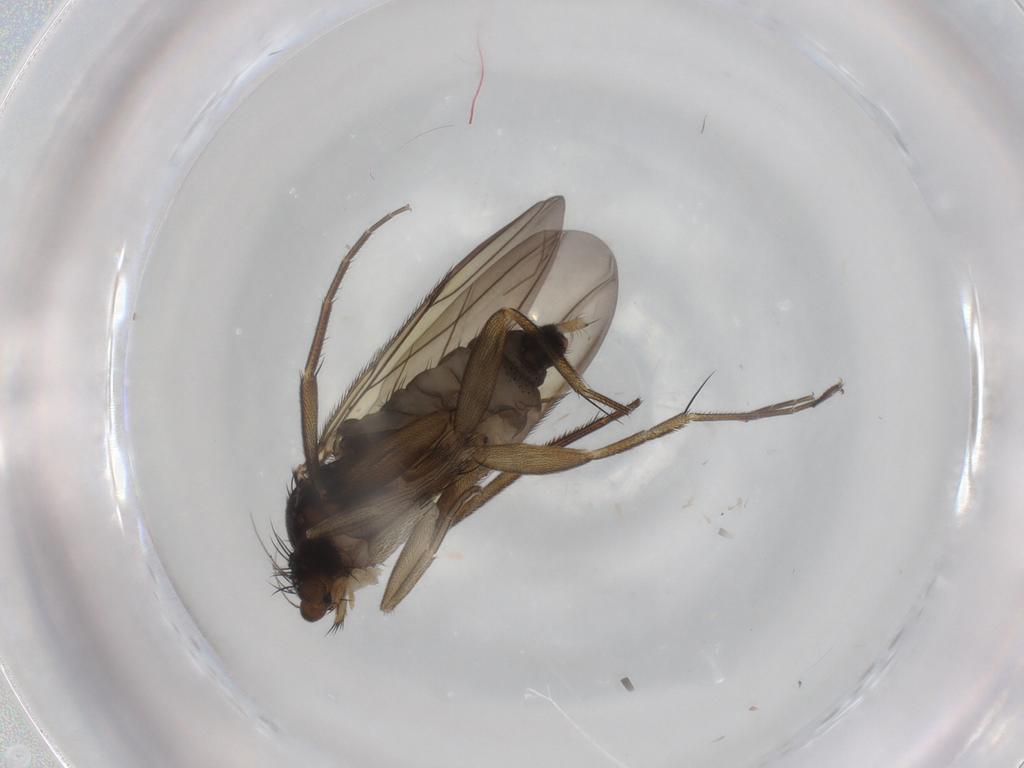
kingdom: Animalia
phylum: Arthropoda
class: Insecta
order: Diptera
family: Phoridae
